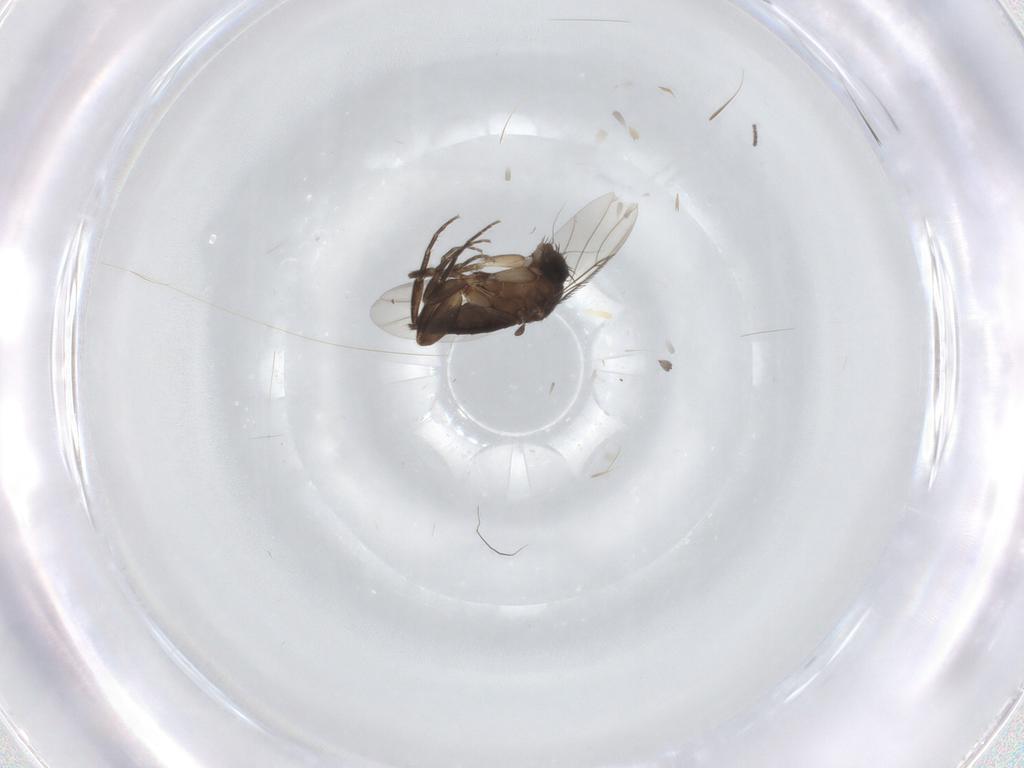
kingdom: Animalia
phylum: Arthropoda
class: Insecta
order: Diptera
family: Phoridae
